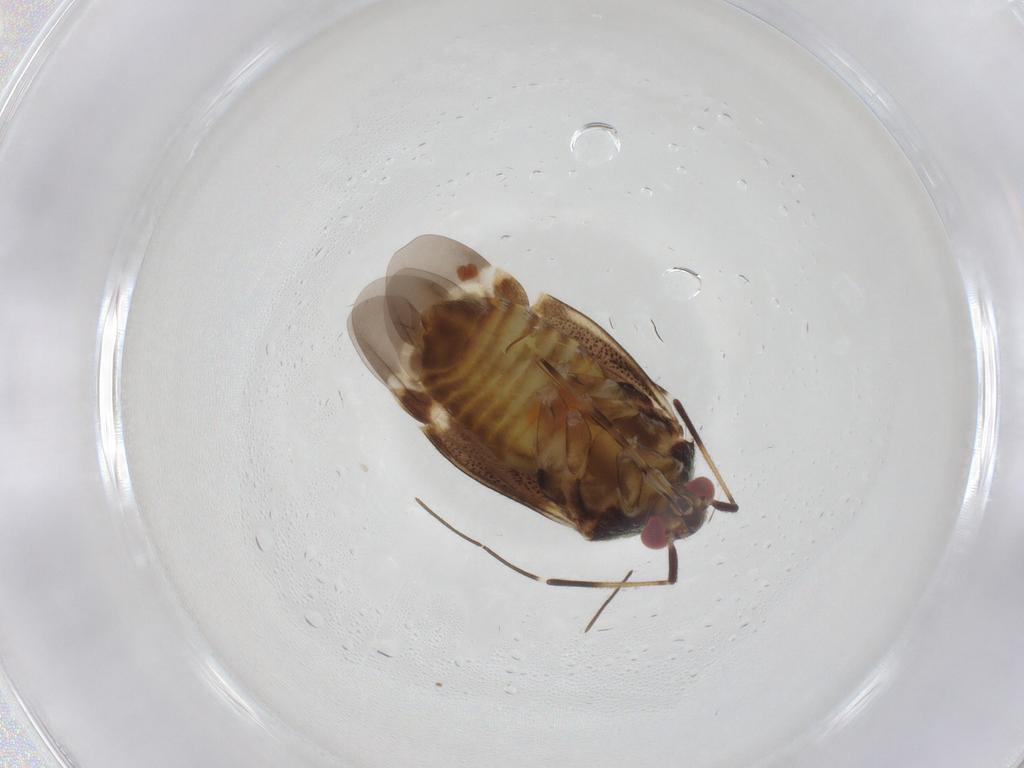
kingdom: Animalia
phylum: Arthropoda
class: Insecta
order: Hemiptera
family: Miridae
